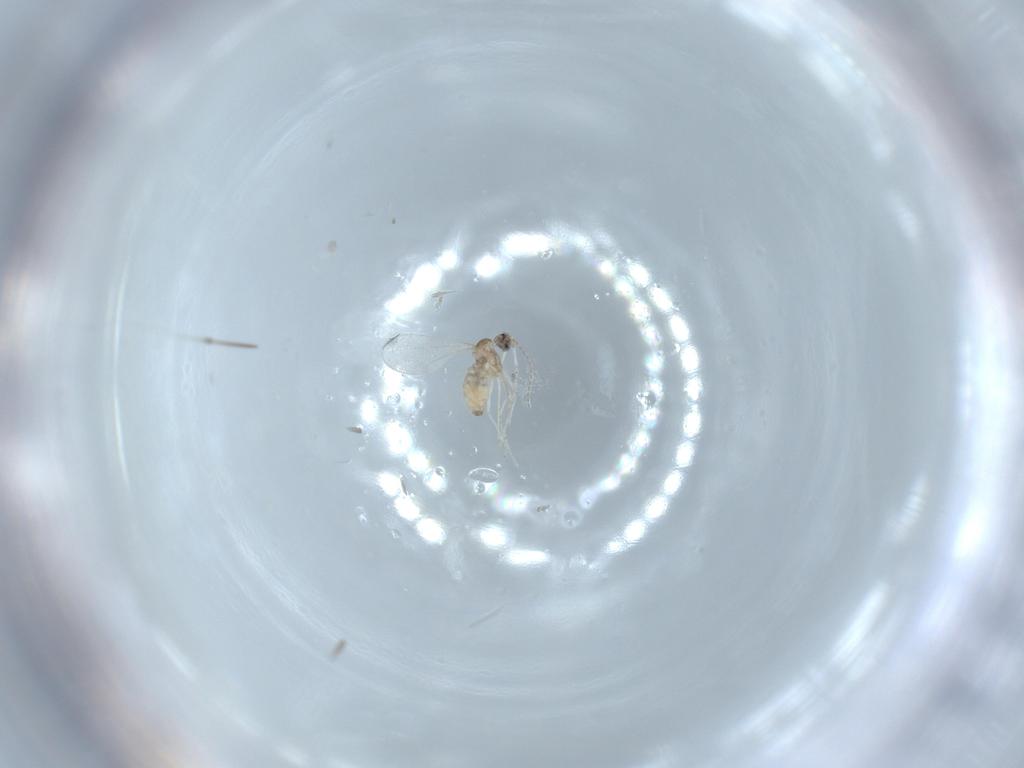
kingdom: Animalia
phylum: Arthropoda
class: Insecta
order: Diptera
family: Cecidomyiidae
